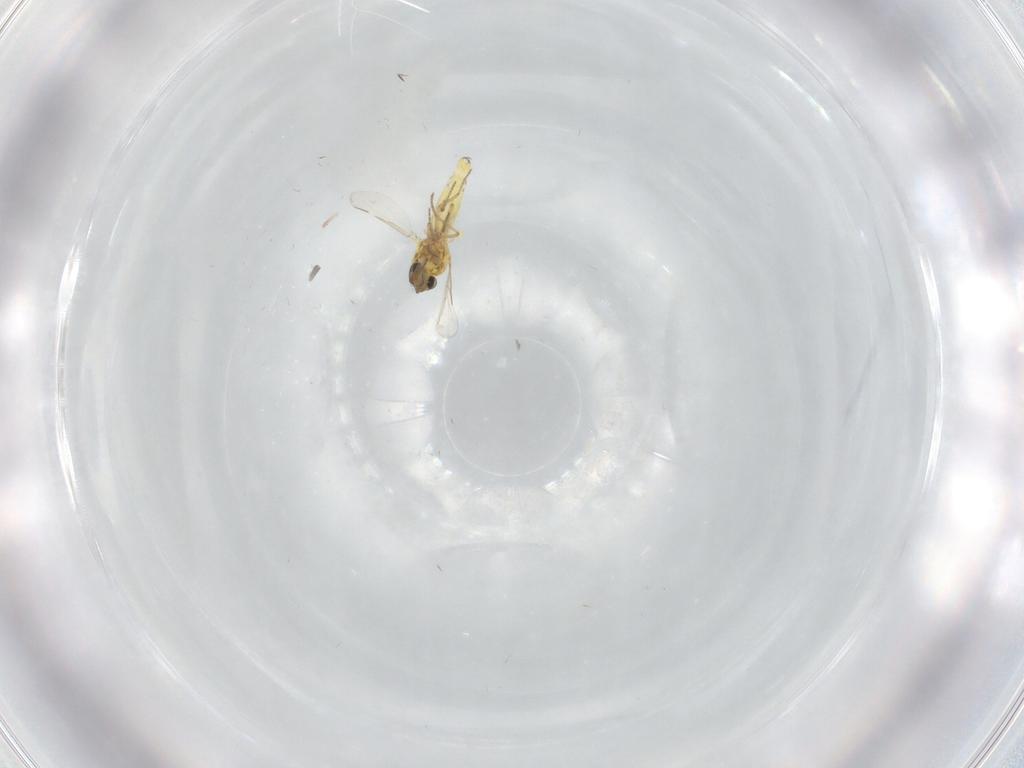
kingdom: Animalia
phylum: Arthropoda
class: Insecta
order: Diptera
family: Ceratopogonidae
